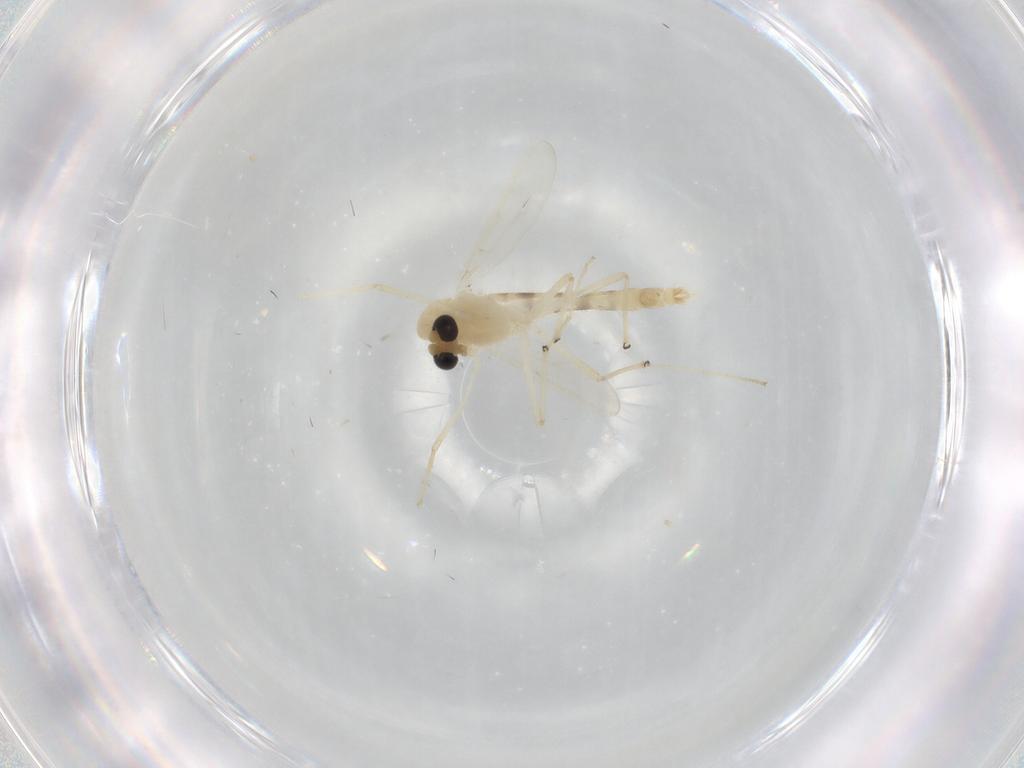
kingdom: Animalia
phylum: Arthropoda
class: Insecta
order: Diptera
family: Chironomidae
